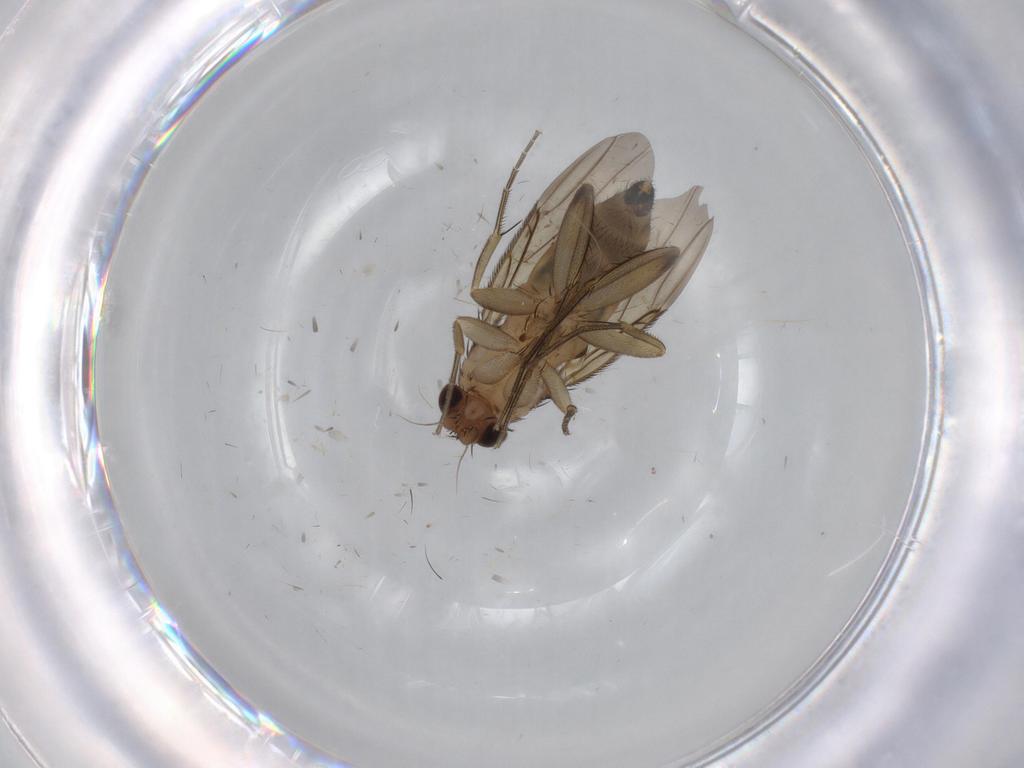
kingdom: Animalia
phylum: Arthropoda
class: Insecta
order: Diptera
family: Phoridae
